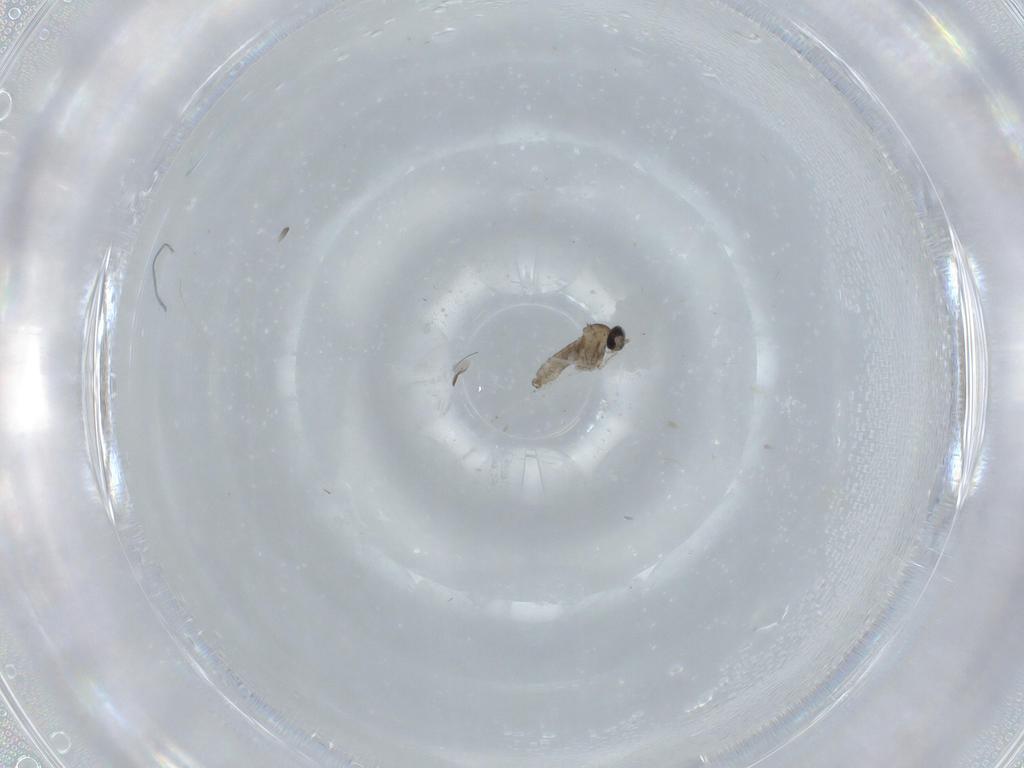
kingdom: Animalia
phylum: Arthropoda
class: Insecta
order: Diptera
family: Cecidomyiidae
